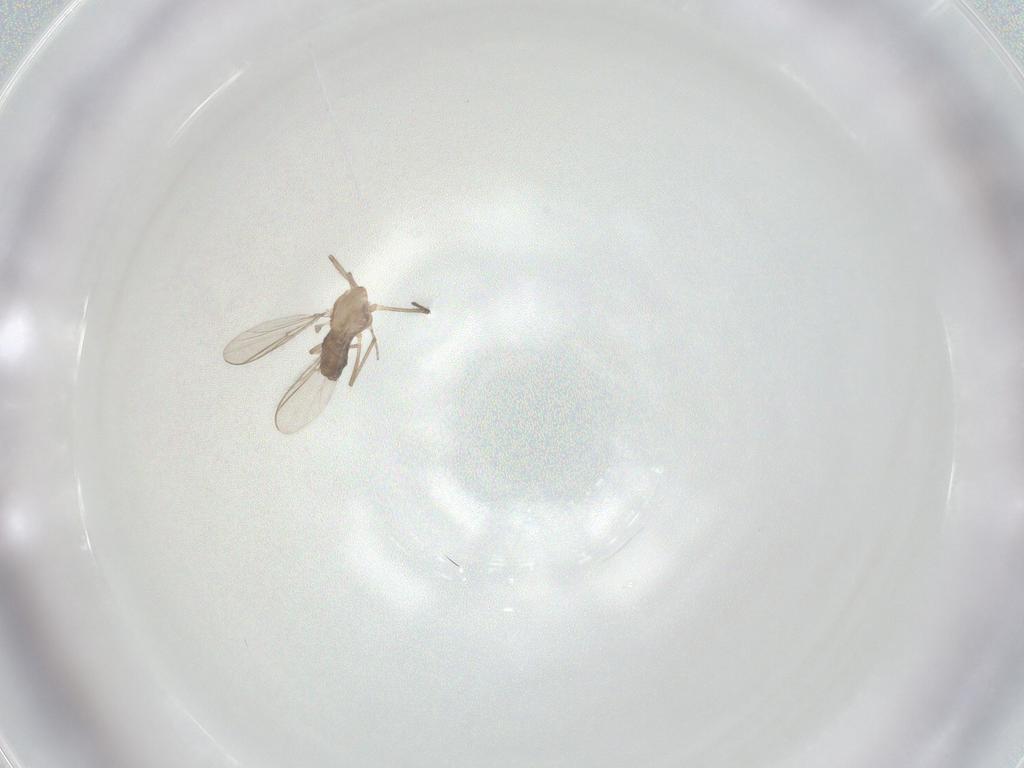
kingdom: Animalia
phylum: Arthropoda
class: Insecta
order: Diptera
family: Chironomidae
